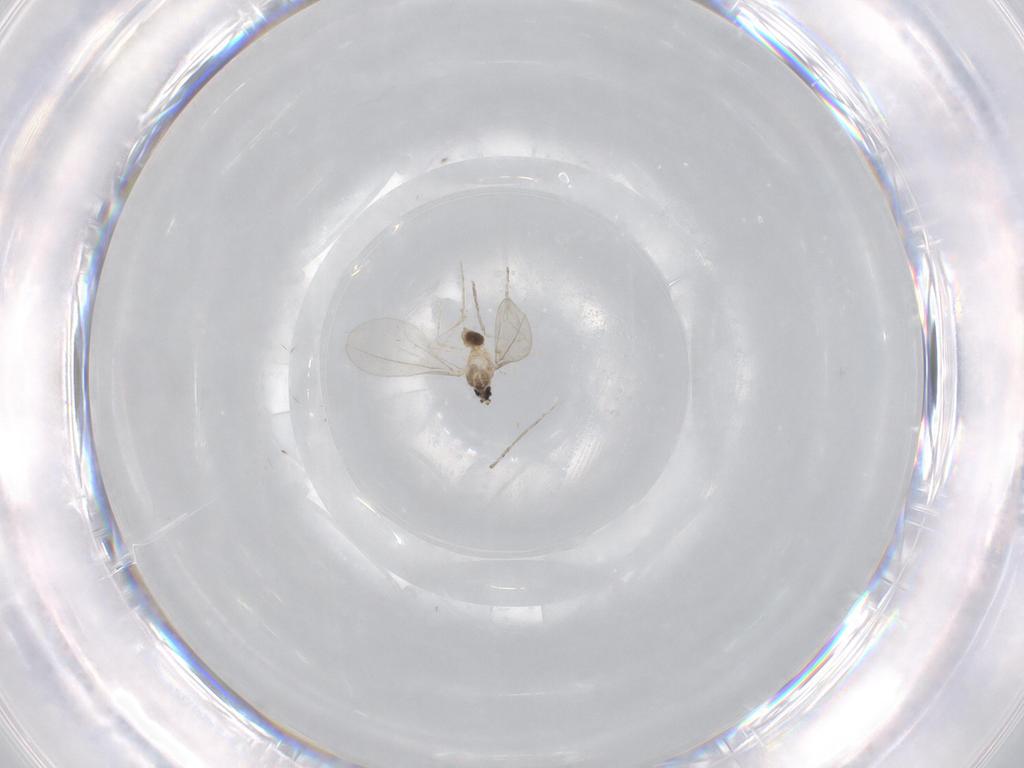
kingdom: Animalia
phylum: Arthropoda
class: Insecta
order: Diptera
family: Cecidomyiidae
